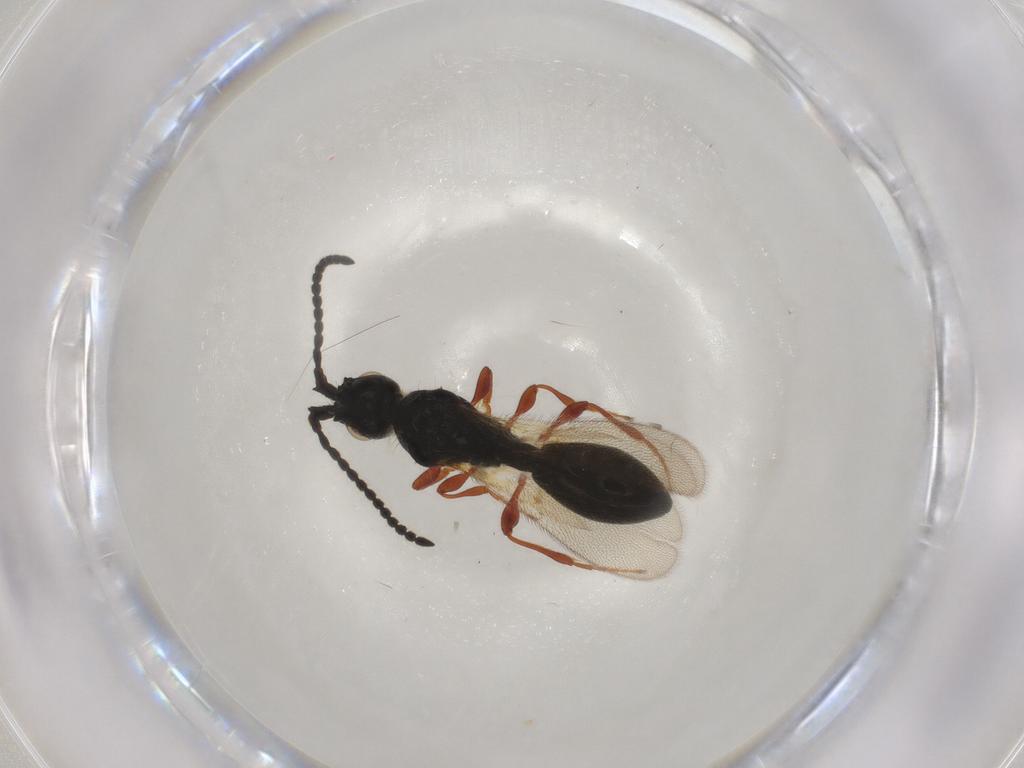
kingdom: Animalia
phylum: Arthropoda
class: Insecta
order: Hymenoptera
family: Diapriidae
